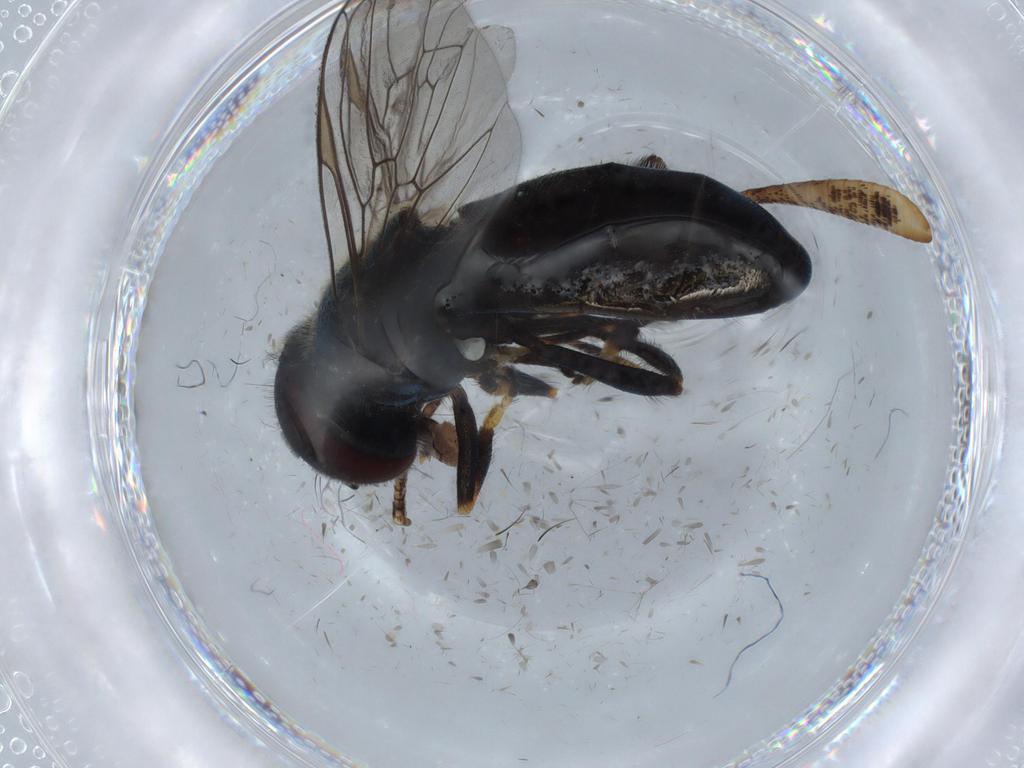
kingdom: Animalia
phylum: Arthropoda
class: Insecta
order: Diptera
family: Syrphidae
